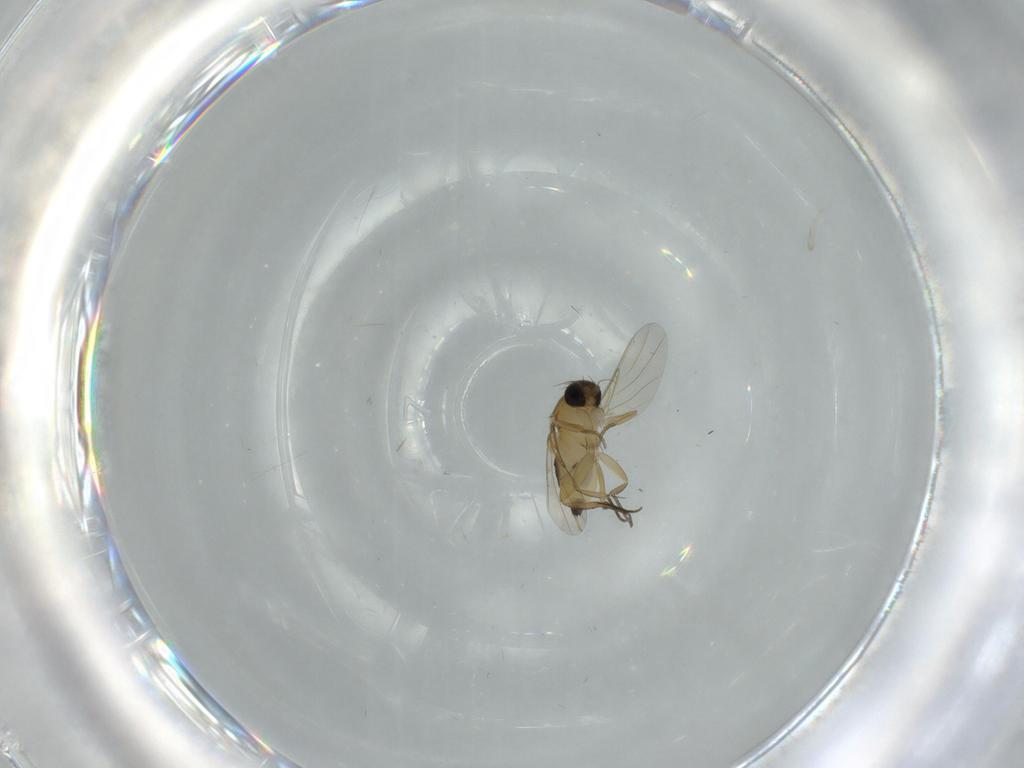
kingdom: Animalia
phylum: Arthropoda
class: Insecta
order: Diptera
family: Phoridae
